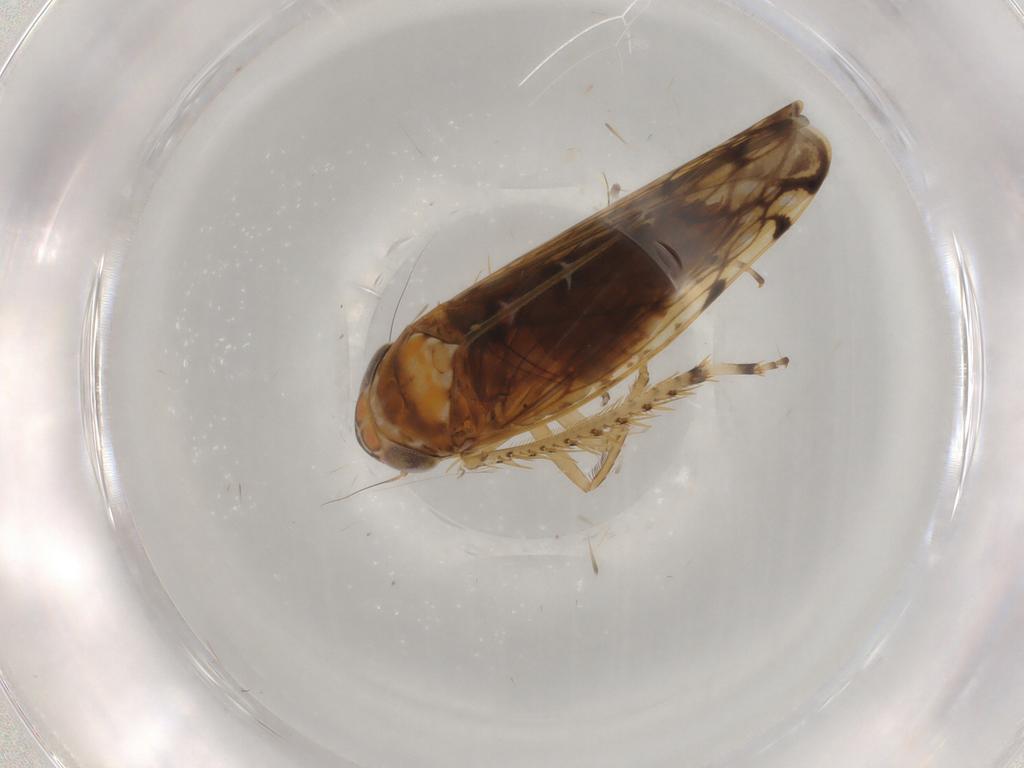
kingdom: Animalia
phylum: Arthropoda
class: Insecta
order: Hemiptera
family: Cicadellidae
